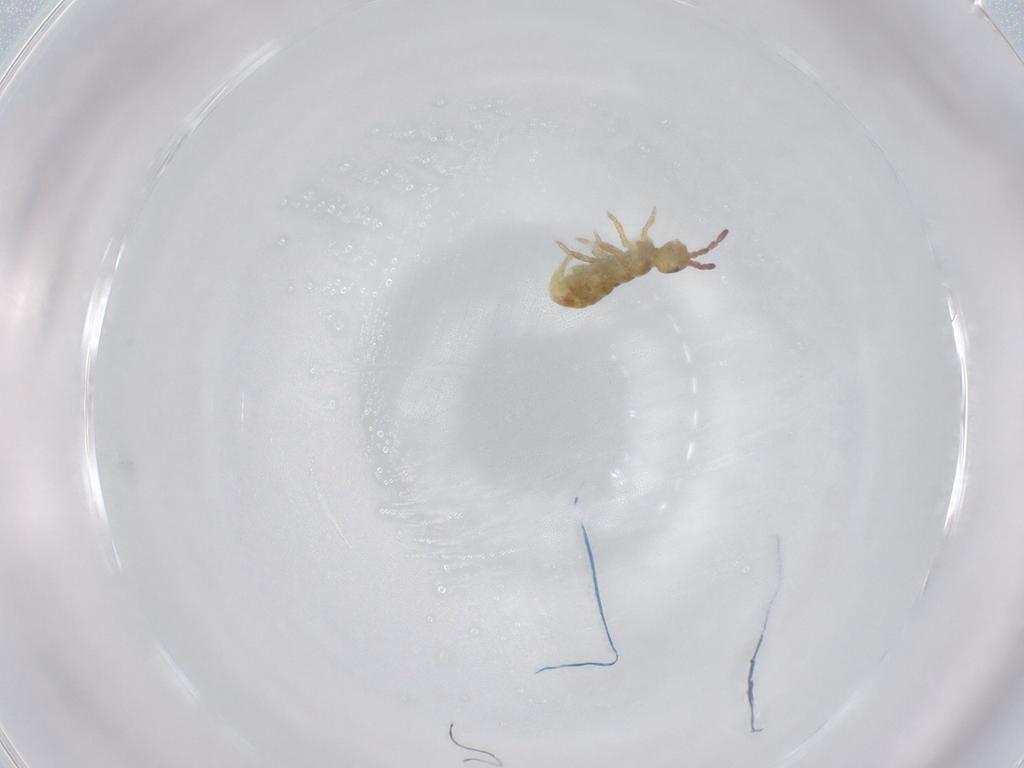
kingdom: Animalia
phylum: Arthropoda
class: Collembola
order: Entomobryomorpha
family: Isotomidae
